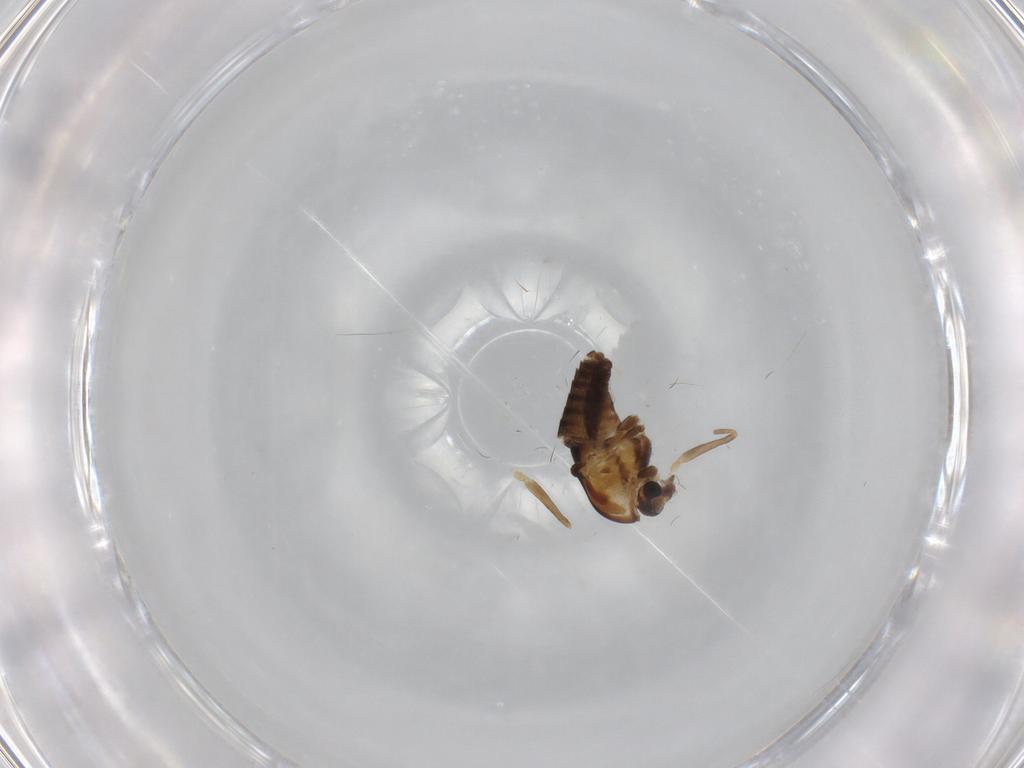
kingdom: Animalia
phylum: Arthropoda
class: Insecta
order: Diptera
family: Chironomidae
